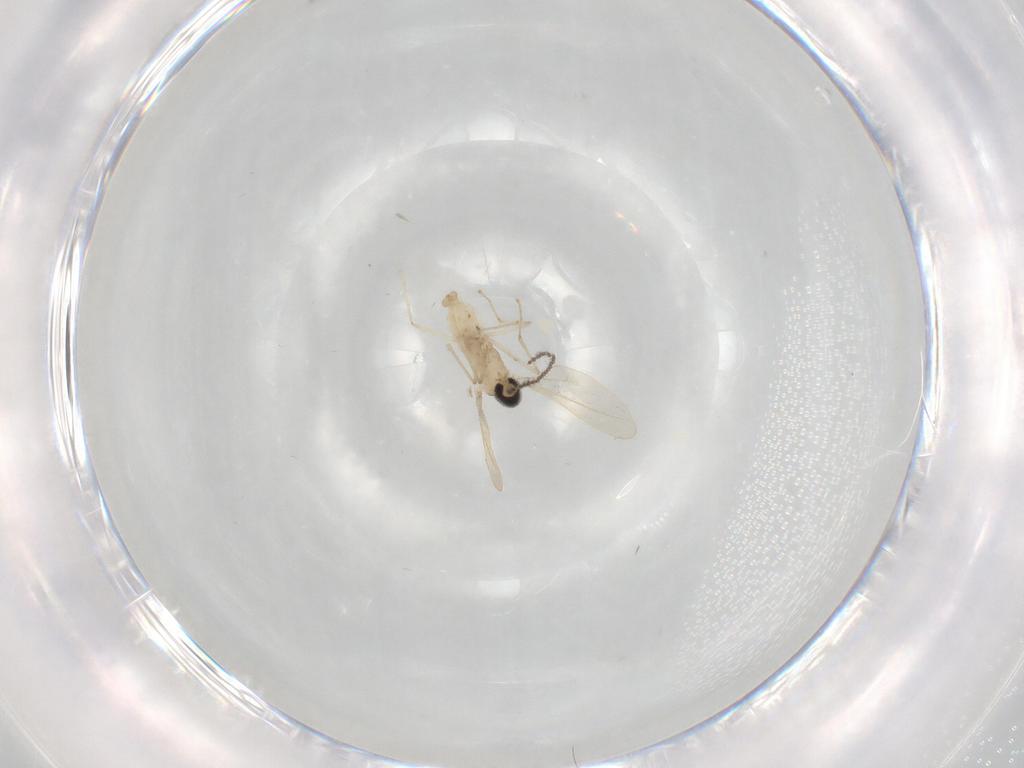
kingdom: Animalia
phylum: Arthropoda
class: Insecta
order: Diptera
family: Cecidomyiidae
